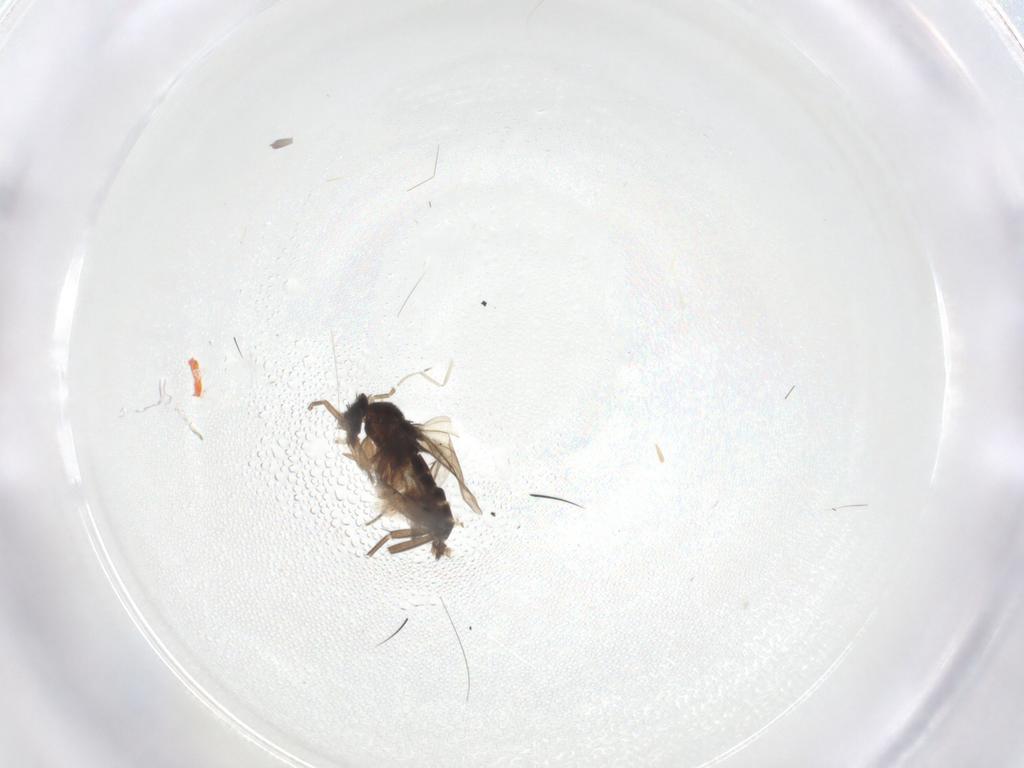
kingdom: Animalia
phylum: Arthropoda
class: Insecta
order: Diptera
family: Phoridae
